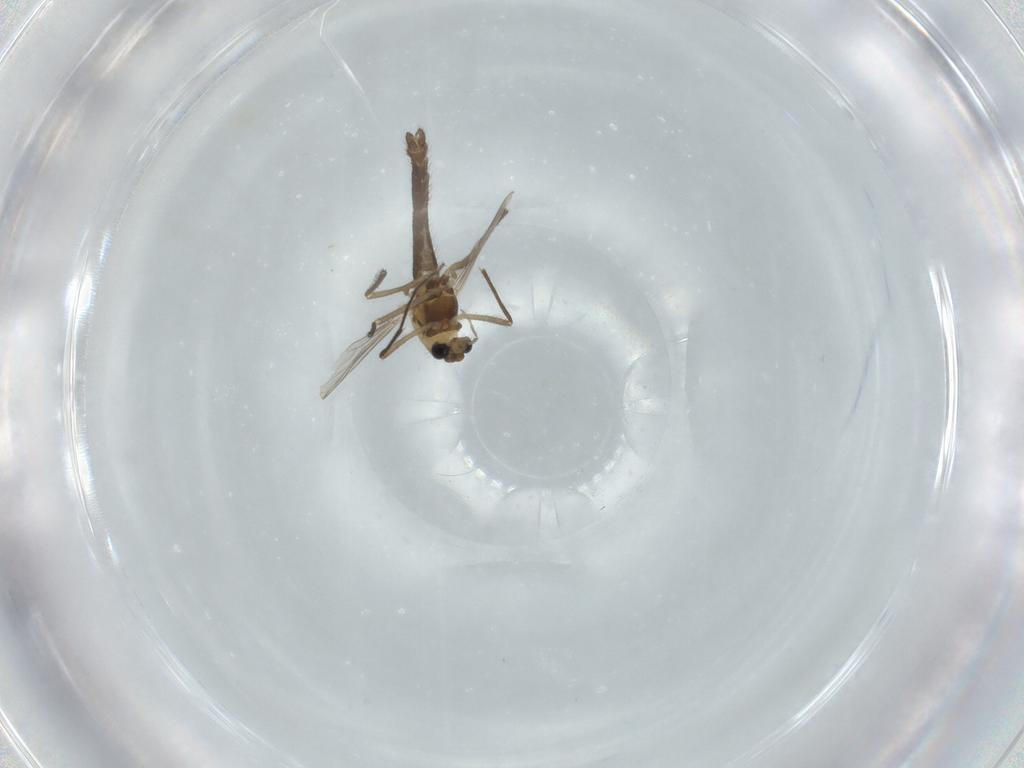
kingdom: Animalia
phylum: Arthropoda
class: Insecta
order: Diptera
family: Chironomidae
